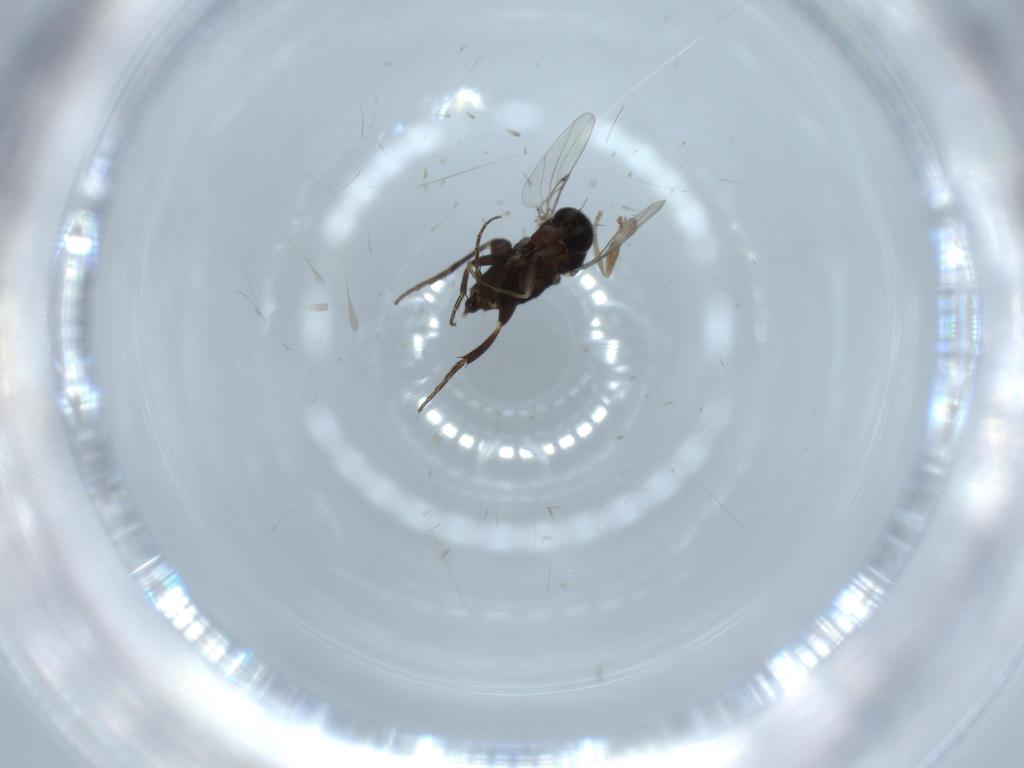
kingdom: Animalia
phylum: Arthropoda
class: Insecta
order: Diptera
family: Phoridae
